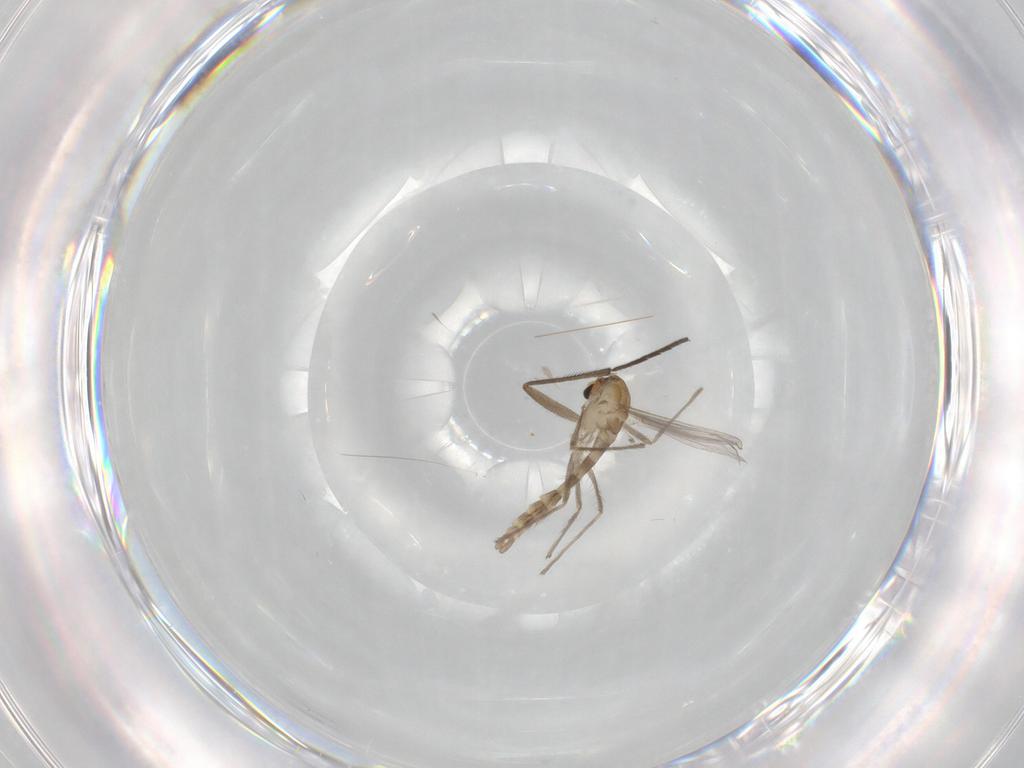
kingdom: Animalia
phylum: Arthropoda
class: Insecta
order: Diptera
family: Chironomidae
